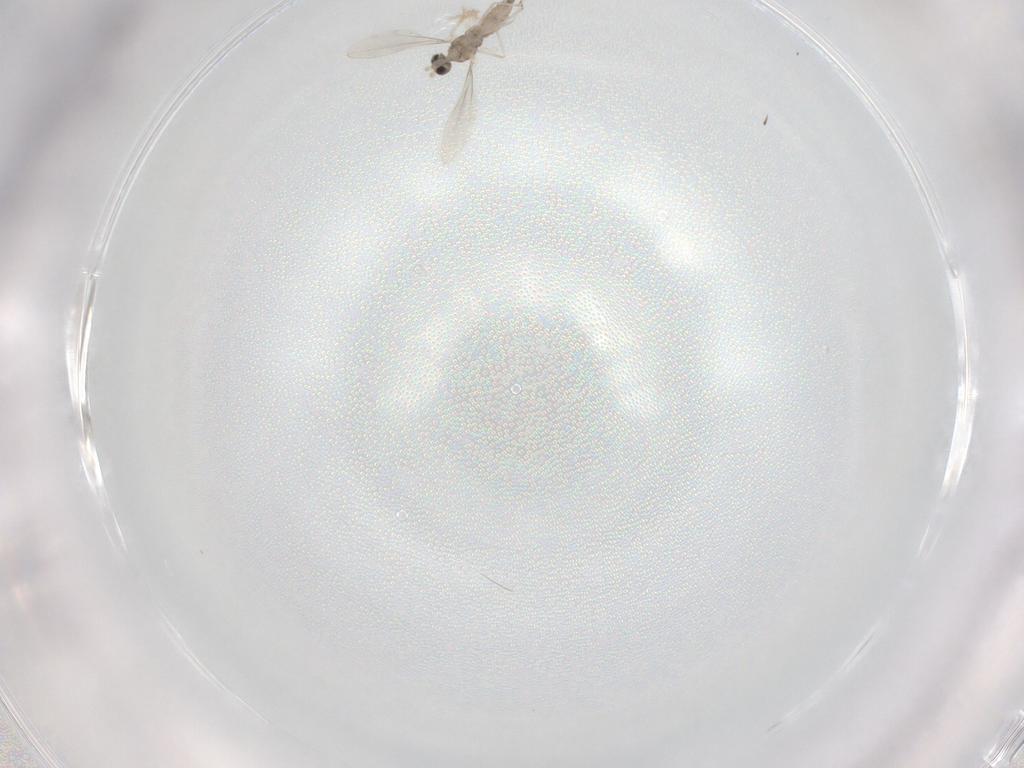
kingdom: Animalia
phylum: Arthropoda
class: Insecta
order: Diptera
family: Cecidomyiidae
